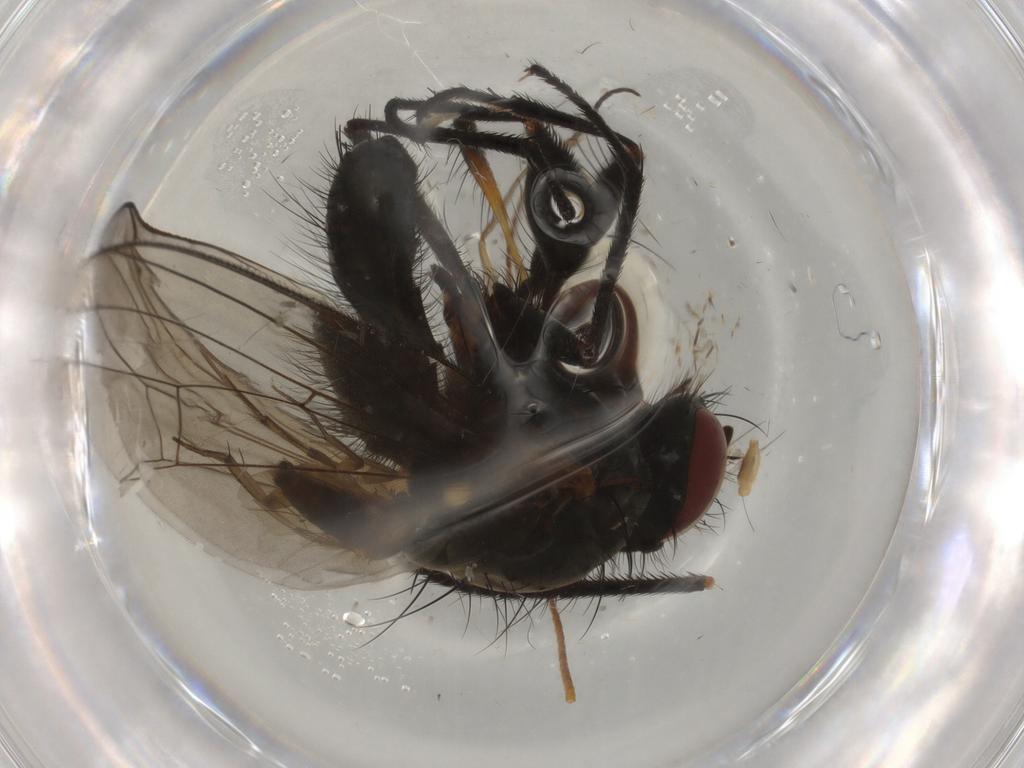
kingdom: Animalia
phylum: Arthropoda
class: Insecta
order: Diptera
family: Anthomyiidae
